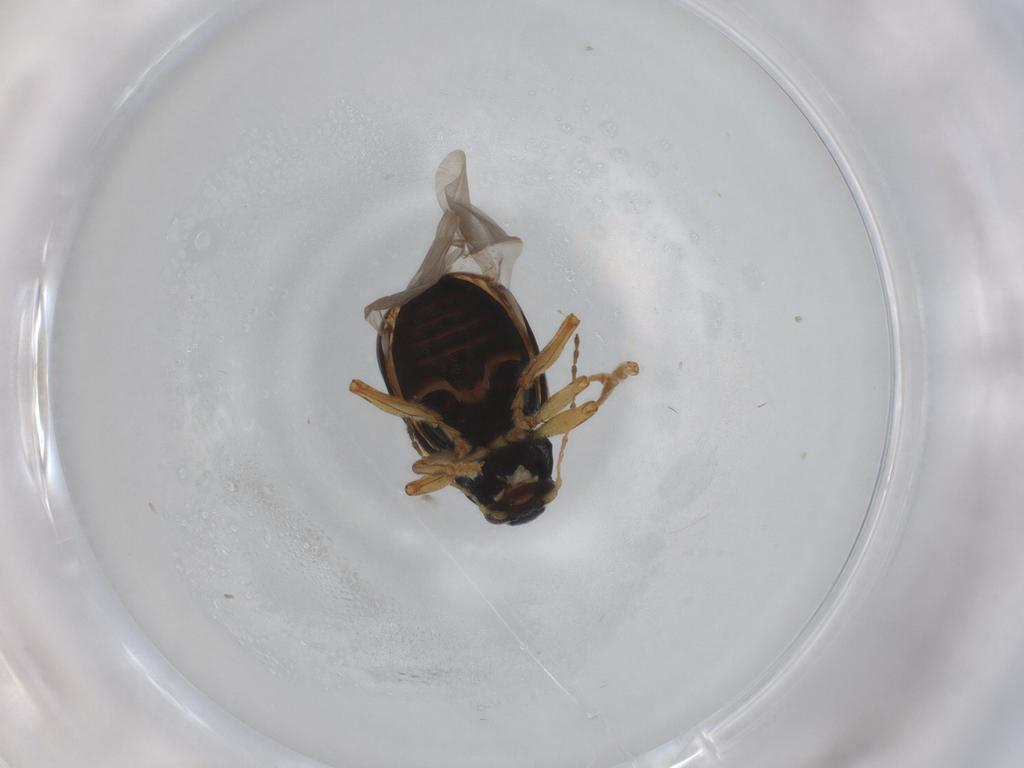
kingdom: Animalia
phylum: Arthropoda
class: Insecta
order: Coleoptera
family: Chrysomelidae
